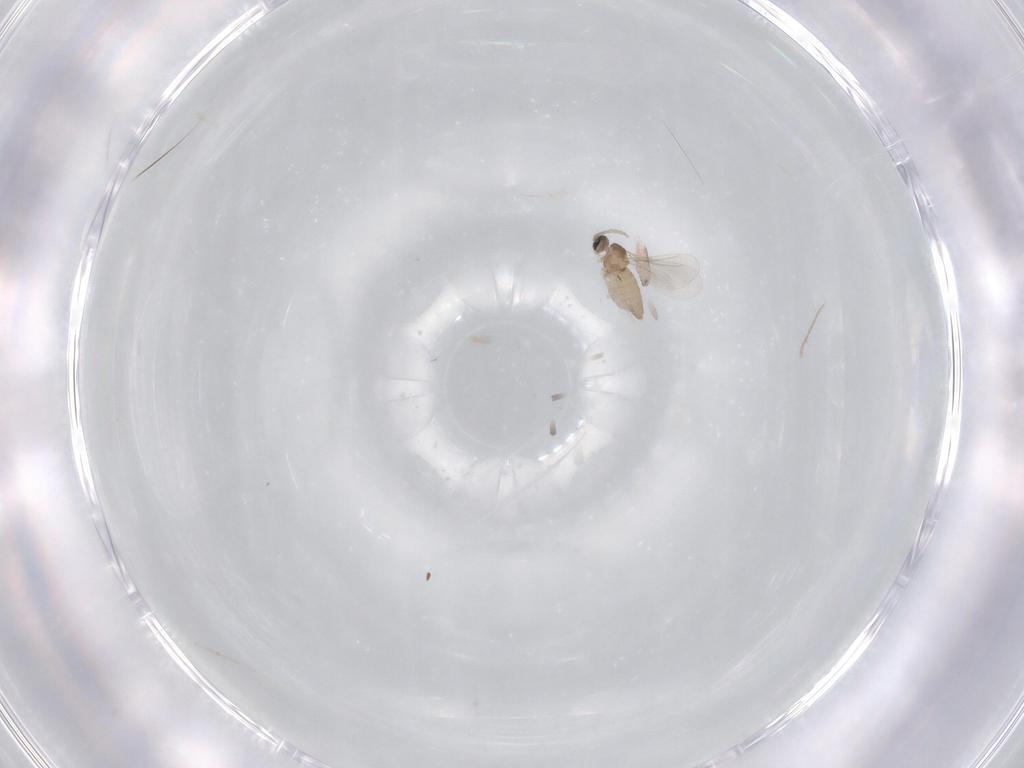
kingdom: Animalia
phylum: Arthropoda
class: Insecta
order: Diptera
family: Cecidomyiidae
